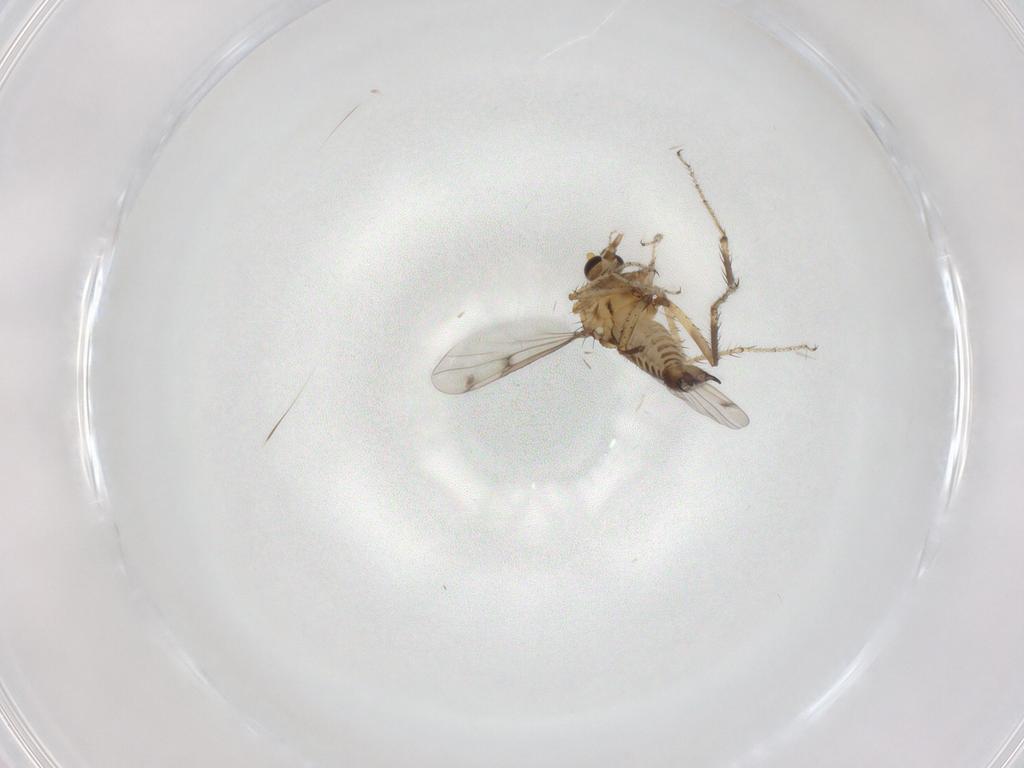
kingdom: Animalia
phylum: Arthropoda
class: Insecta
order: Diptera
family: Ceratopogonidae
